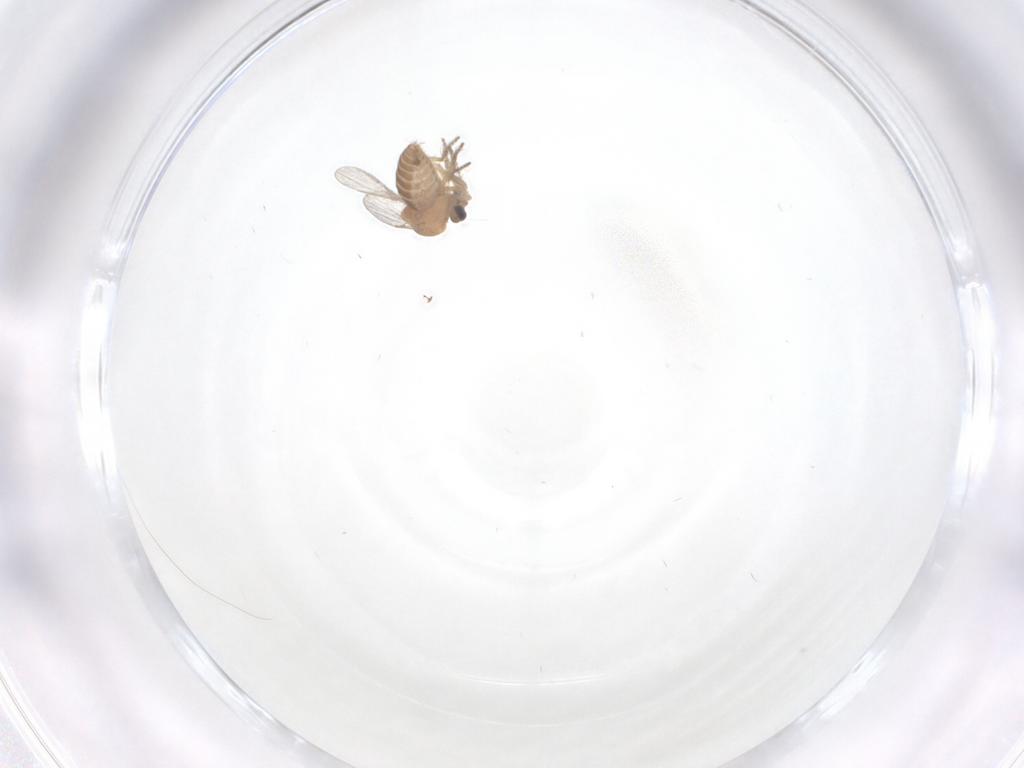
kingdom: Animalia
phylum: Arthropoda
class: Insecta
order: Diptera
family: Ceratopogonidae
